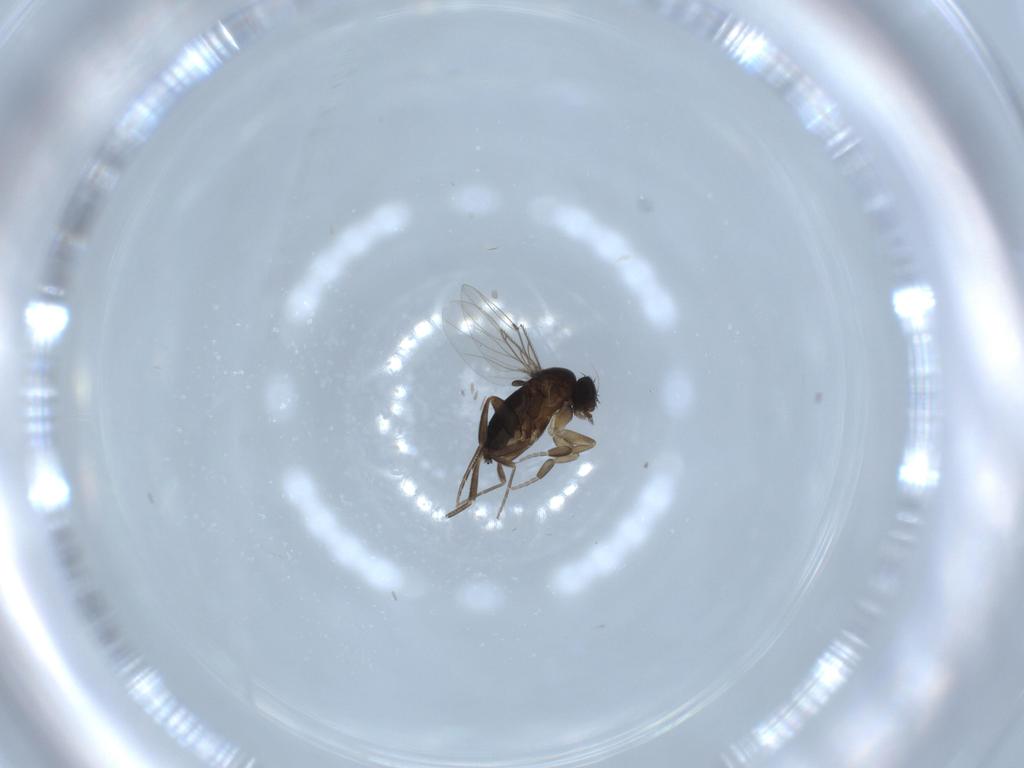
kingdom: Animalia
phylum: Arthropoda
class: Insecta
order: Diptera
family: Phoridae
